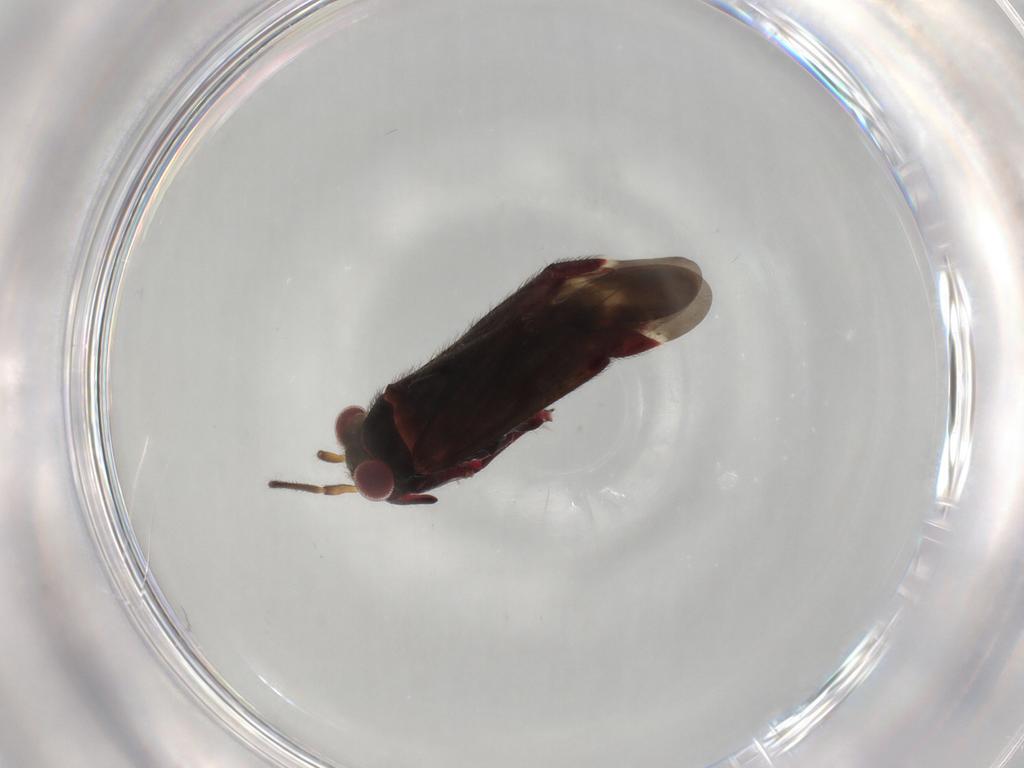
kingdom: Animalia
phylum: Arthropoda
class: Insecta
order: Hemiptera
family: Miridae
